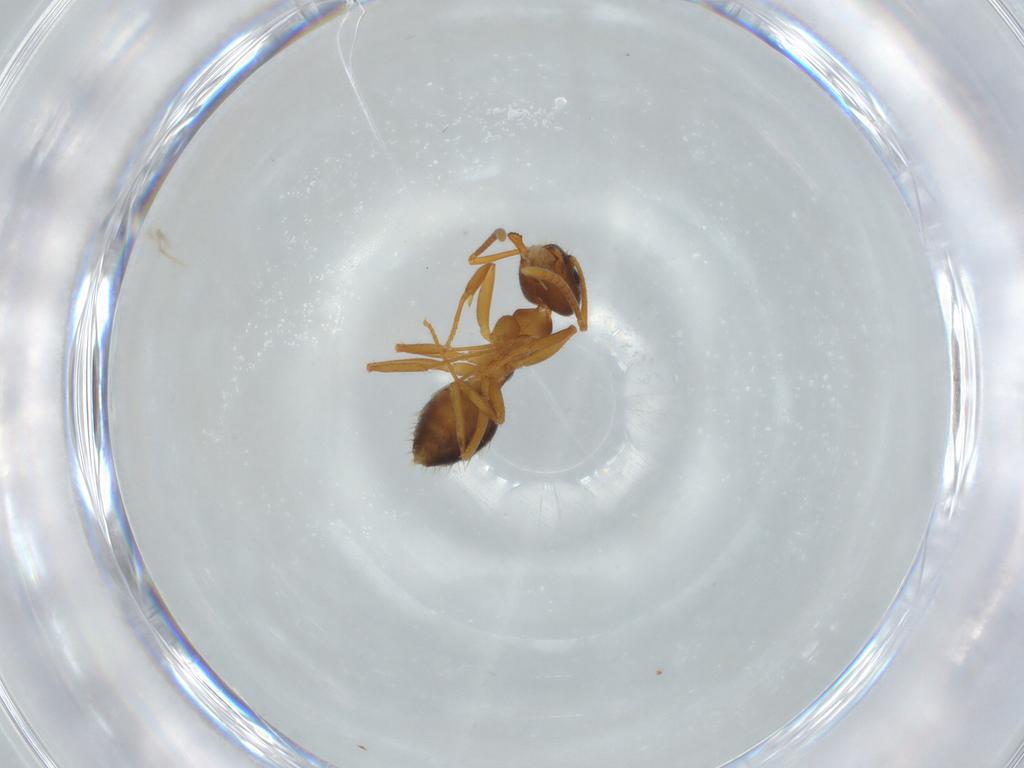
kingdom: Animalia
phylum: Arthropoda
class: Insecta
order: Hymenoptera
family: Formicidae
